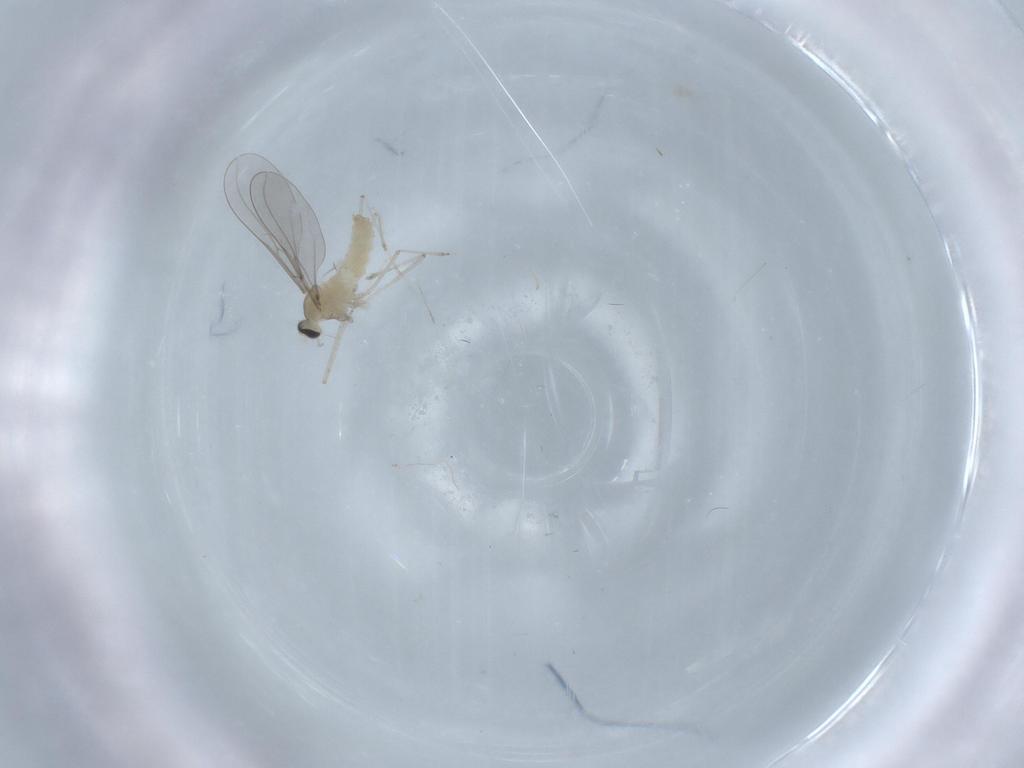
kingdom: Animalia
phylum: Arthropoda
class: Insecta
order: Diptera
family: Cecidomyiidae
